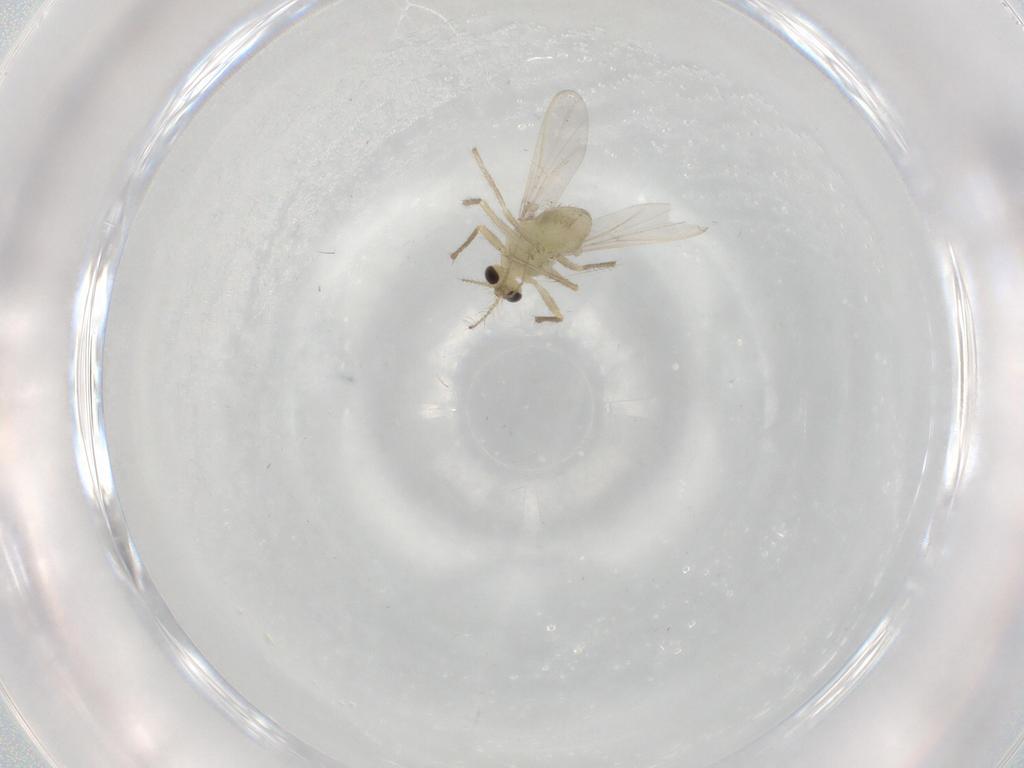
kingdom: Animalia
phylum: Arthropoda
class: Insecta
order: Diptera
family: Chironomidae
